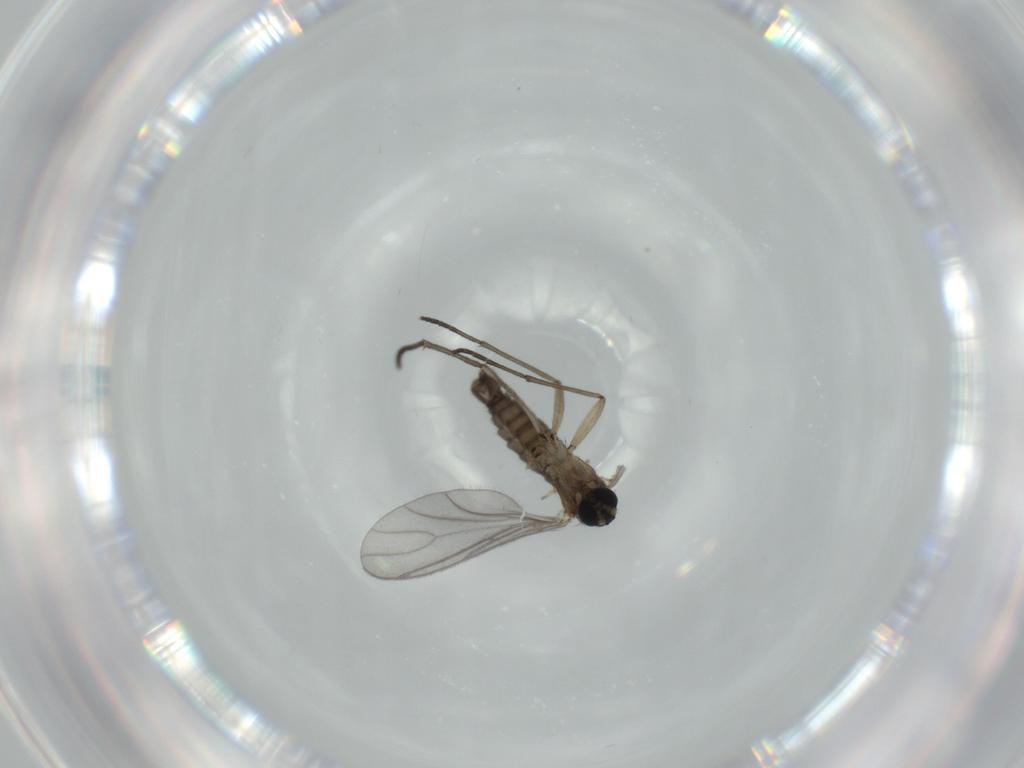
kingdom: Animalia
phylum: Arthropoda
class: Insecta
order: Diptera
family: Sciaridae
